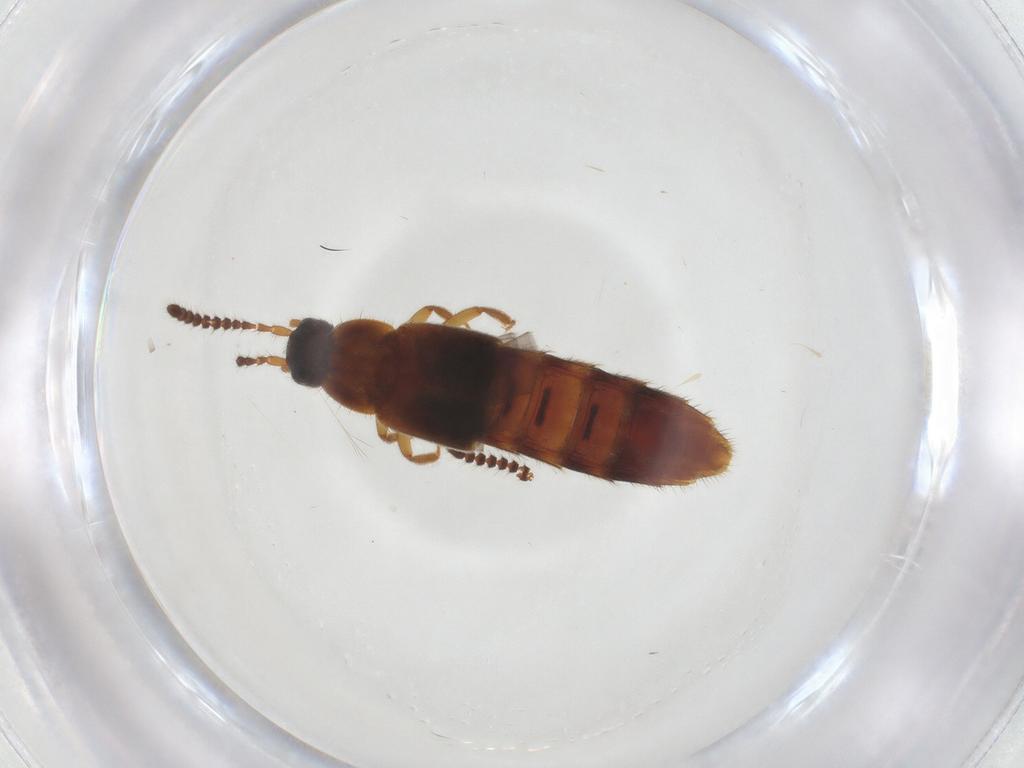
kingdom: Animalia
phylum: Arthropoda
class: Insecta
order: Coleoptera
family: Staphylinidae
